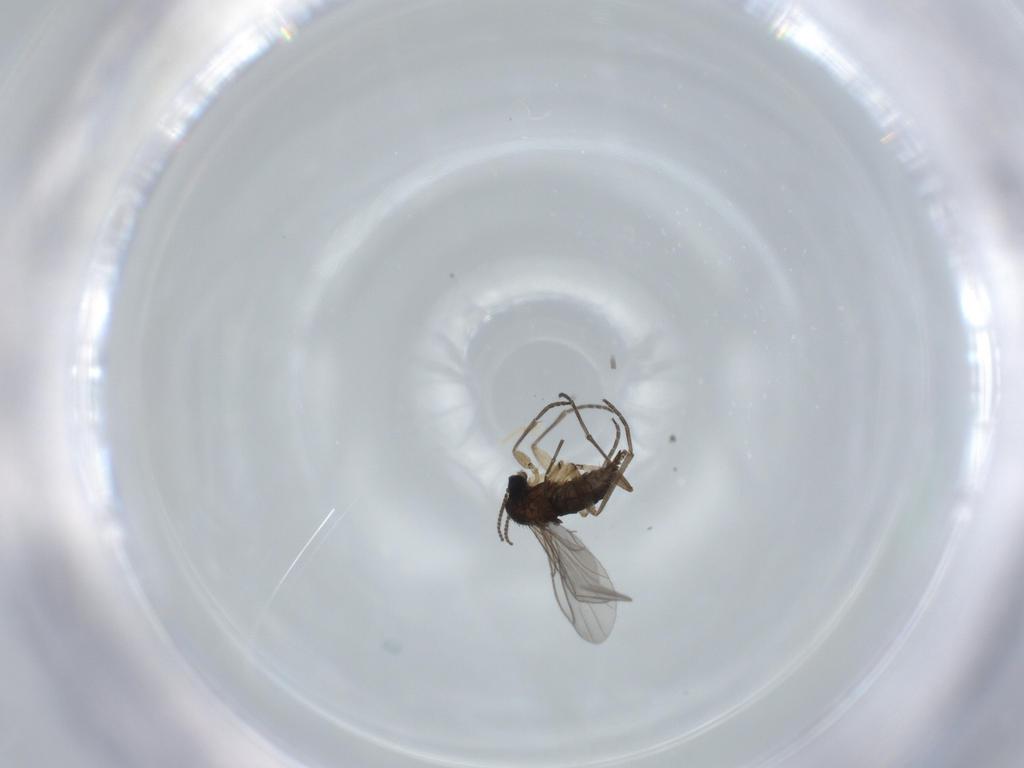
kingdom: Animalia
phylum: Arthropoda
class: Insecta
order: Diptera
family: Sciaridae
